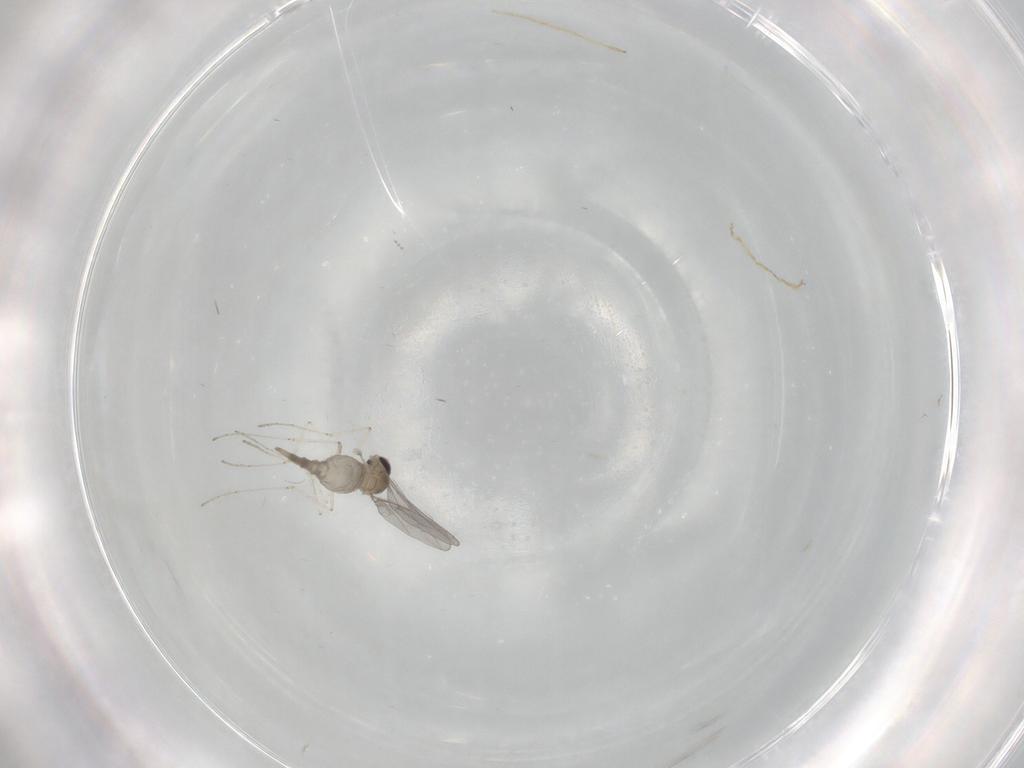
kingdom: Animalia
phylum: Arthropoda
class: Insecta
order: Diptera
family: Cecidomyiidae
